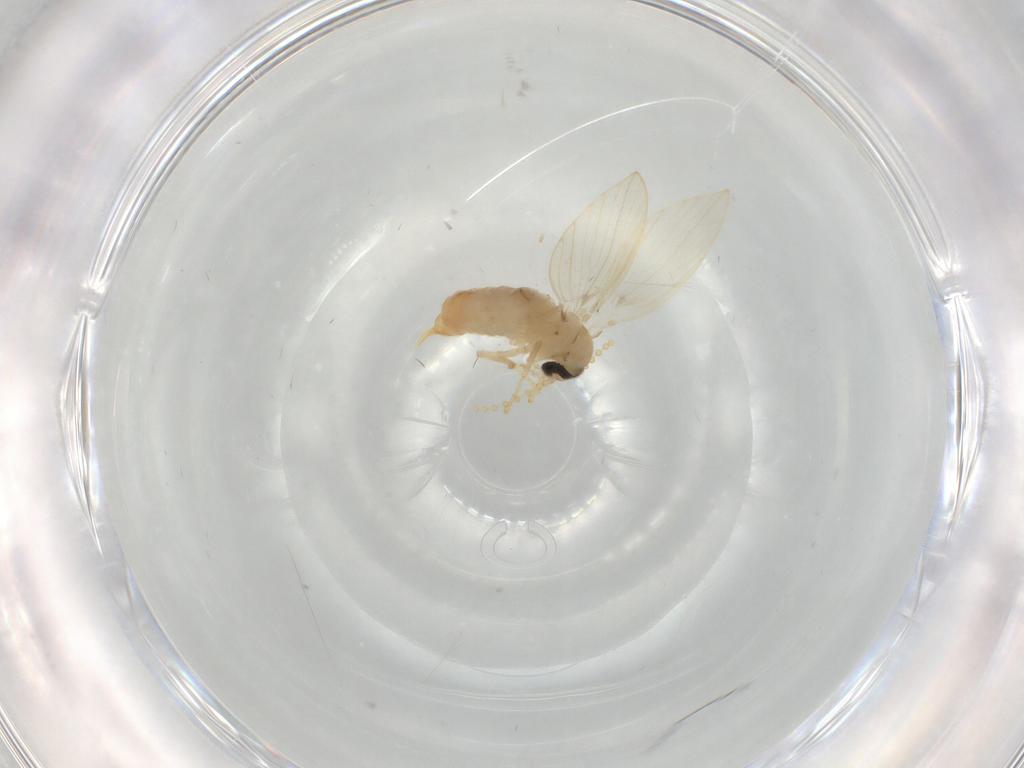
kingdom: Animalia
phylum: Arthropoda
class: Insecta
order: Diptera
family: Psychodidae
